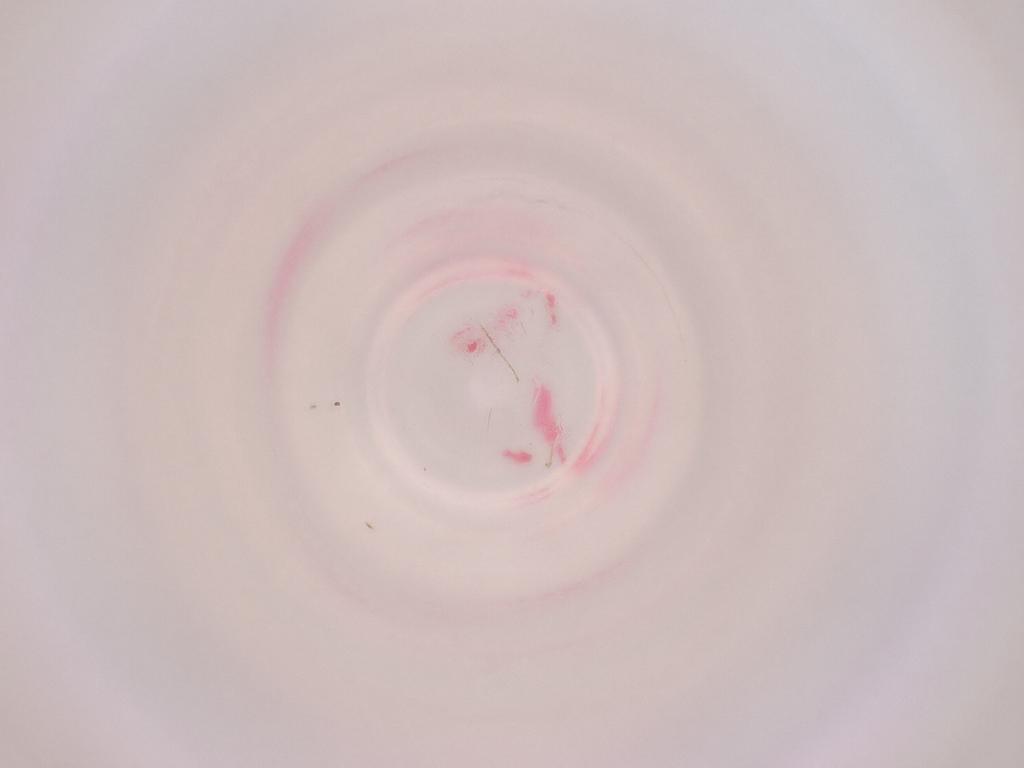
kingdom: Animalia
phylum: Arthropoda
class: Insecta
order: Diptera
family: Cecidomyiidae
